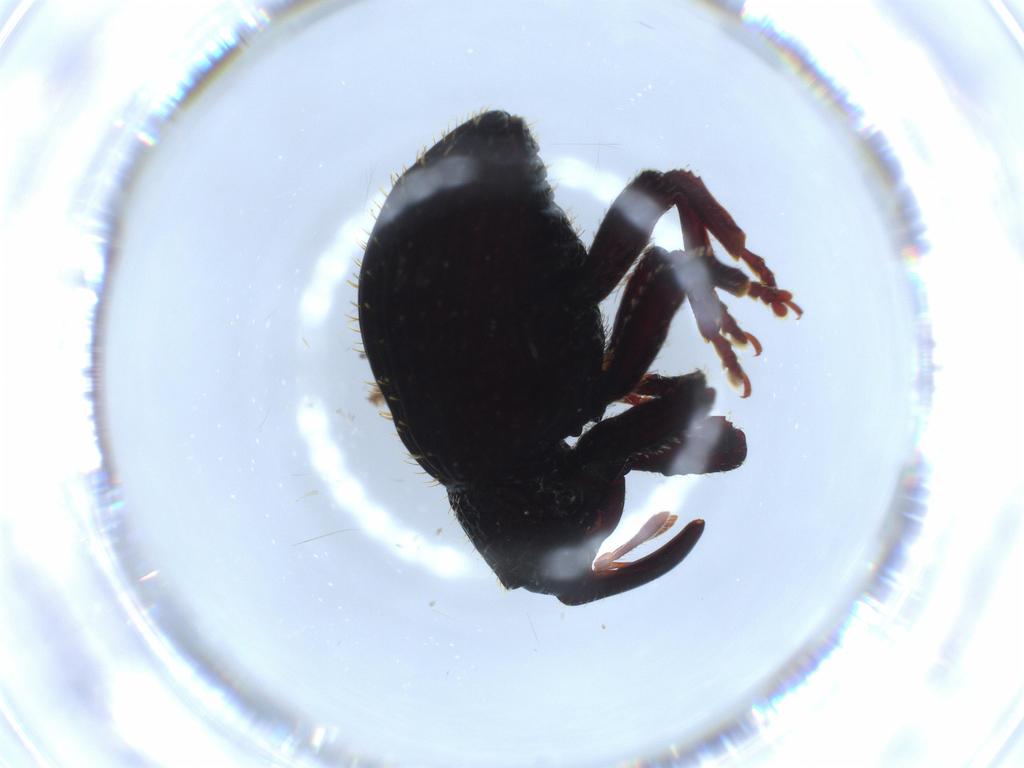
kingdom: Animalia
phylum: Arthropoda
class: Insecta
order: Coleoptera
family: Curculionidae
